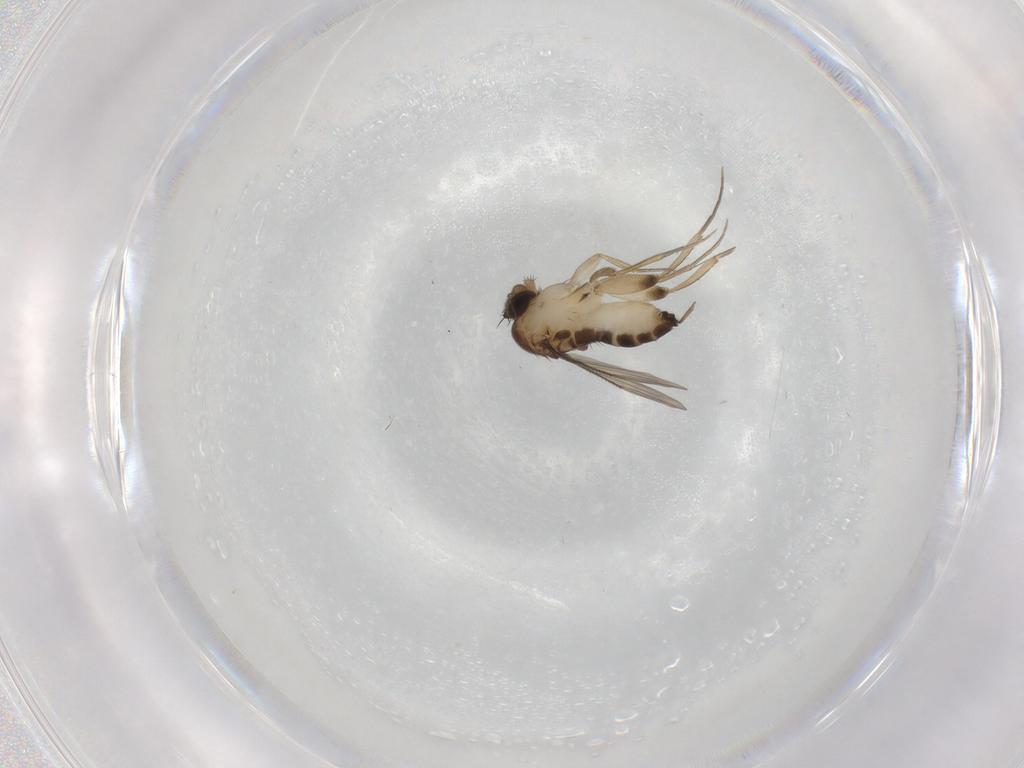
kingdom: Animalia
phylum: Arthropoda
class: Insecta
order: Diptera
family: Phoridae
